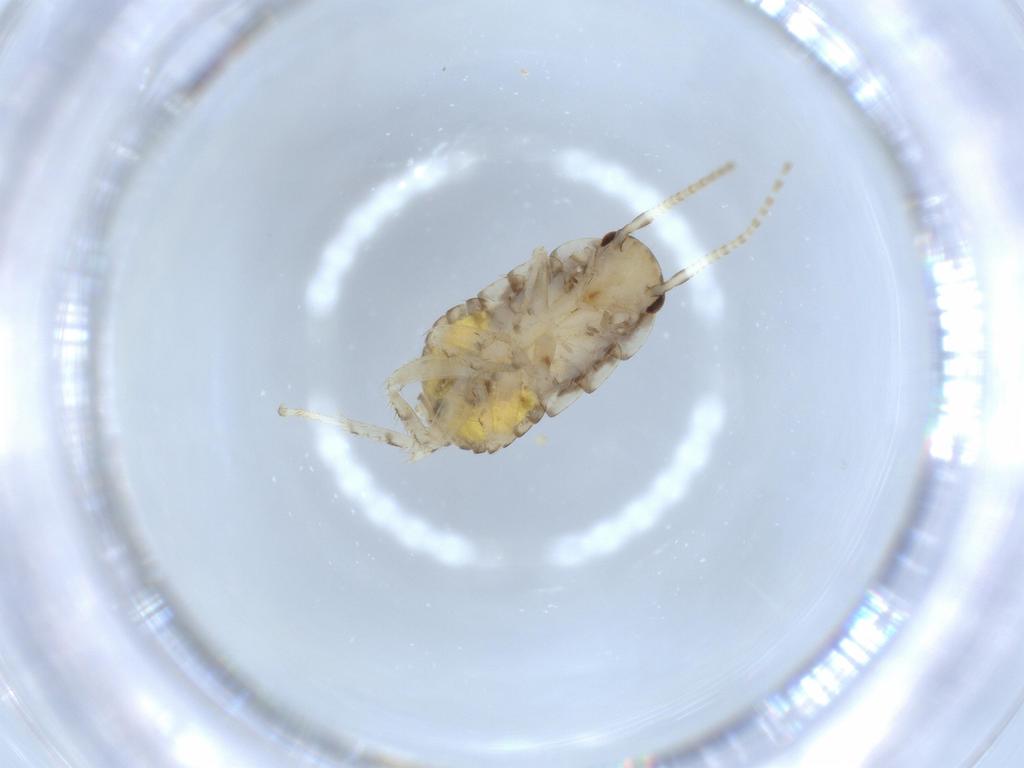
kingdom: Animalia
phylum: Arthropoda
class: Insecta
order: Blattodea
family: Ectobiidae
